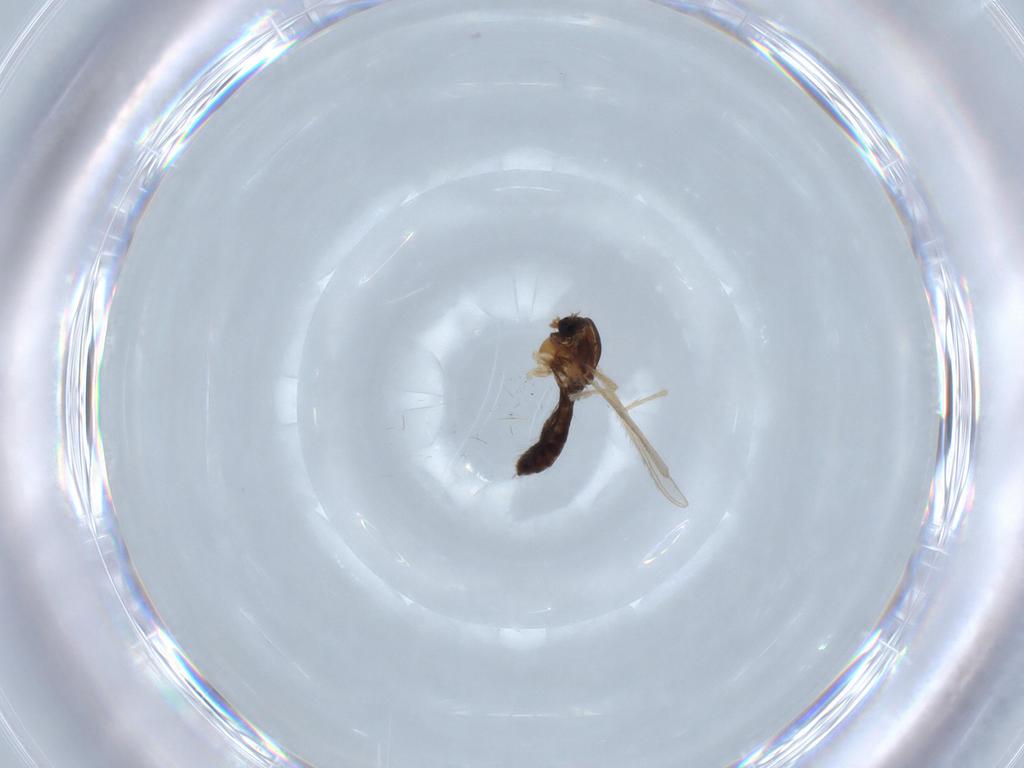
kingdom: Animalia
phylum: Arthropoda
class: Insecta
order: Diptera
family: Chironomidae
